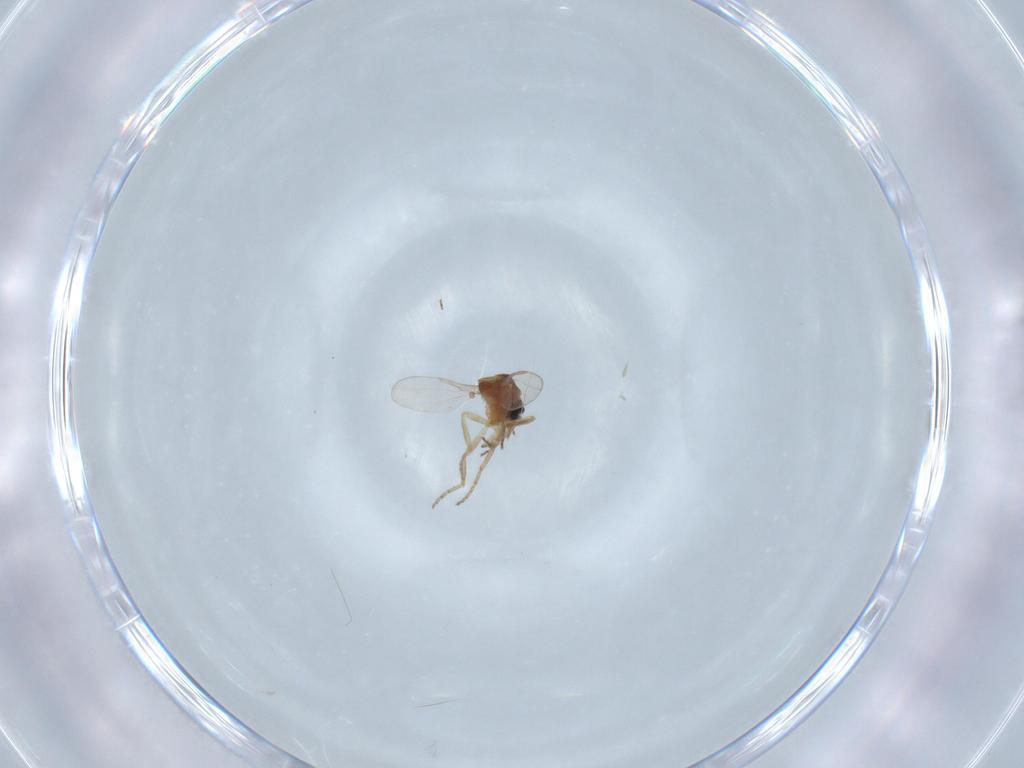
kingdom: Animalia
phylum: Arthropoda
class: Insecta
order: Diptera
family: Ceratopogonidae
